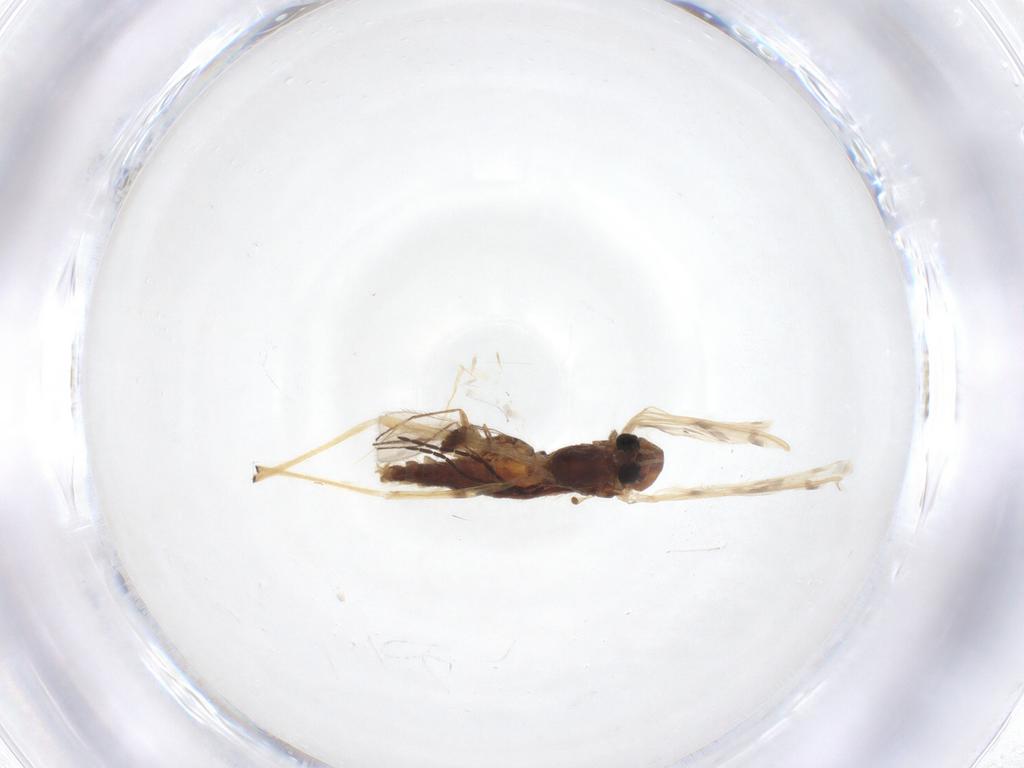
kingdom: Animalia
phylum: Arthropoda
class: Insecta
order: Diptera
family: Chironomidae
